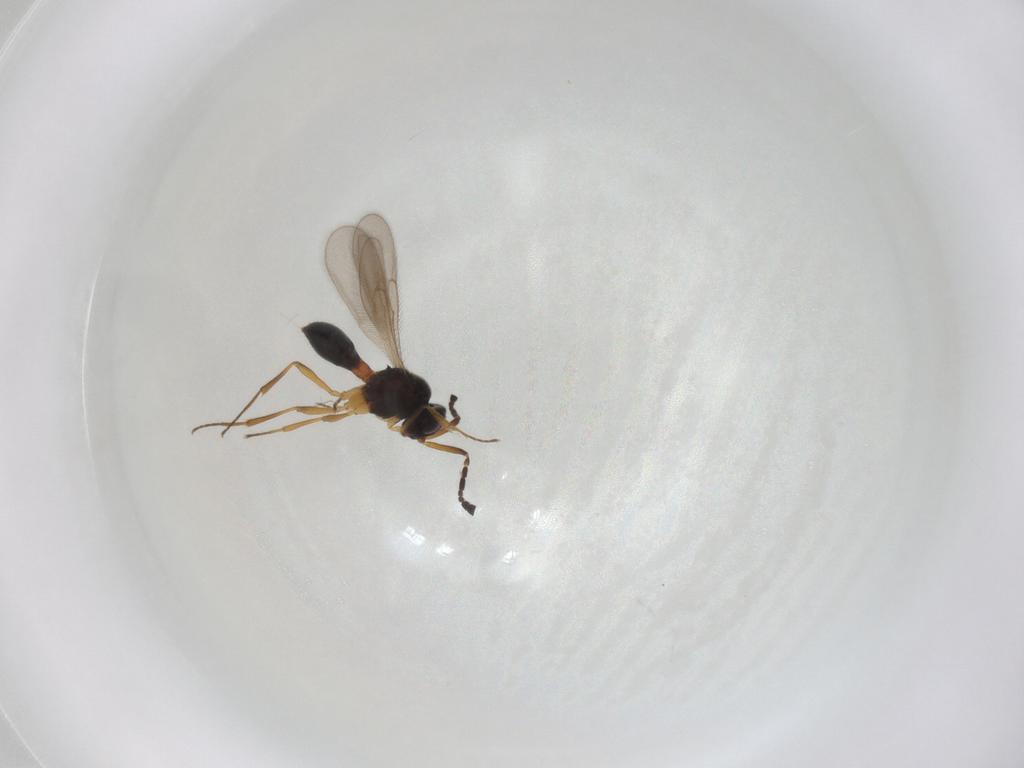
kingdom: Animalia
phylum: Arthropoda
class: Insecta
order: Hymenoptera
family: Scelionidae
